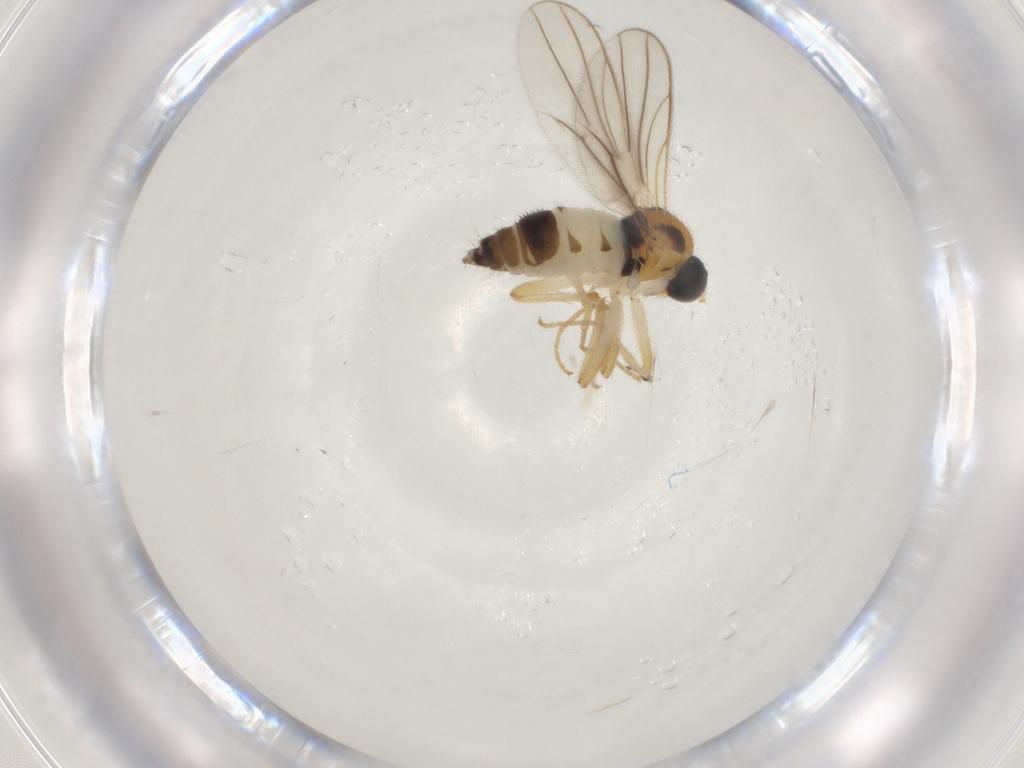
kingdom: Animalia
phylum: Arthropoda
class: Insecta
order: Diptera
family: Hybotidae
